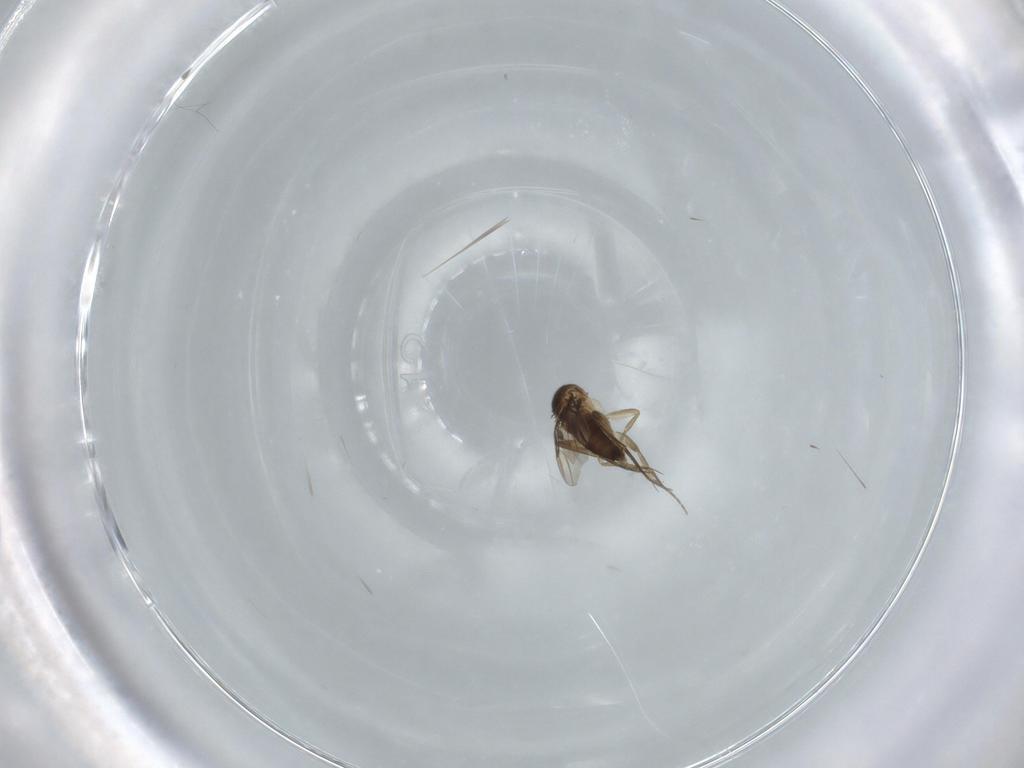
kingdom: Animalia
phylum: Arthropoda
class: Insecta
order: Diptera
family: Phoridae
